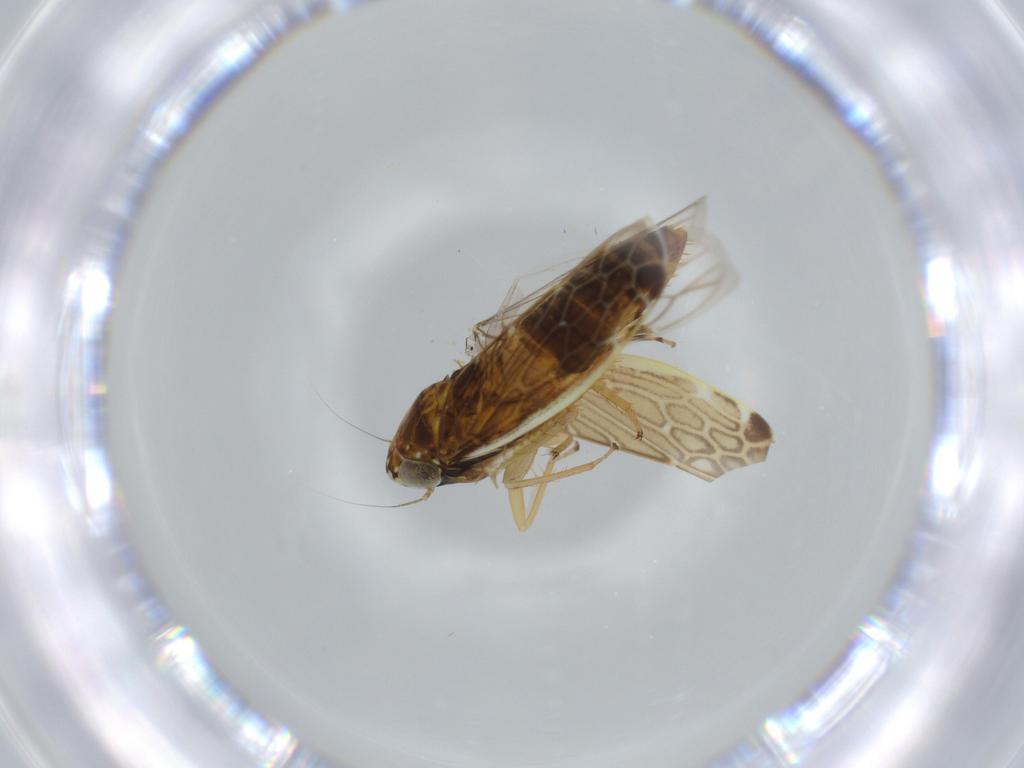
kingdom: Animalia
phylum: Arthropoda
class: Insecta
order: Hemiptera
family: Cicadellidae
